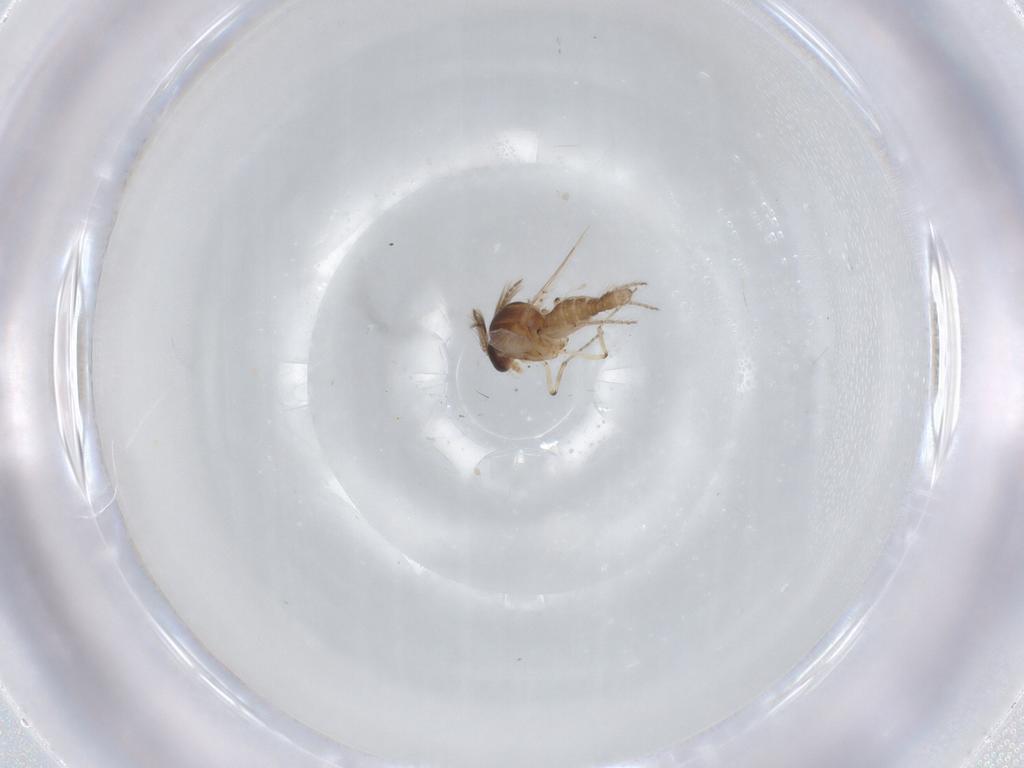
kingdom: Animalia
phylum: Arthropoda
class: Insecta
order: Diptera
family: Ceratopogonidae
